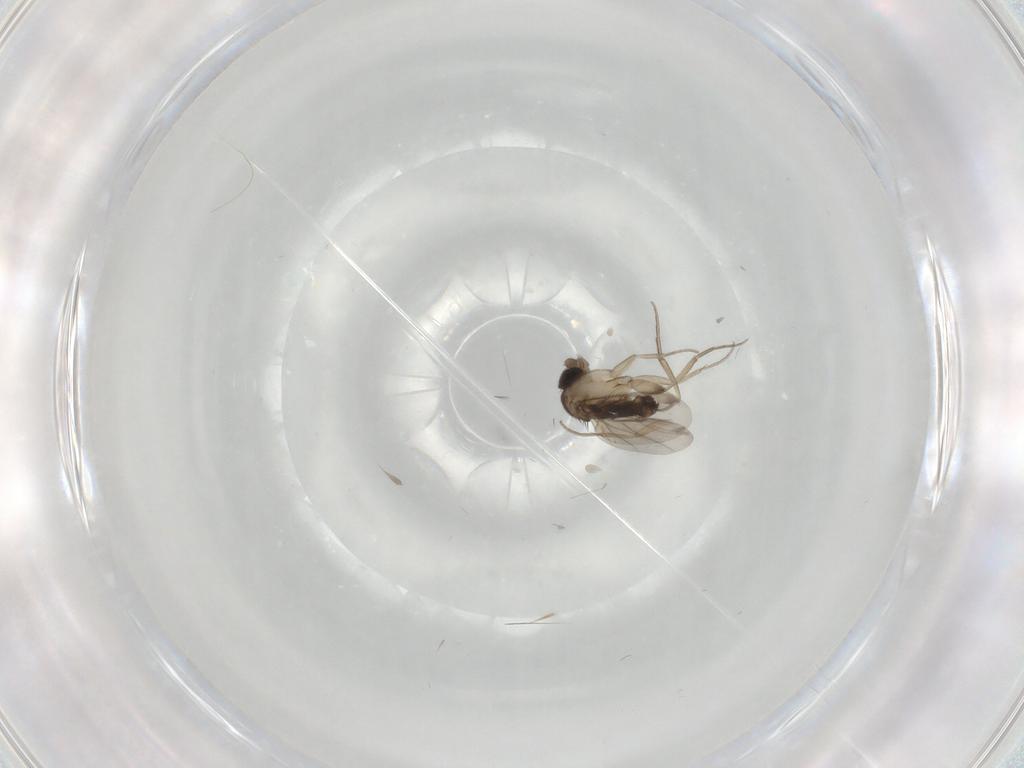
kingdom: Animalia
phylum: Arthropoda
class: Insecta
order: Diptera
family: Phoridae
